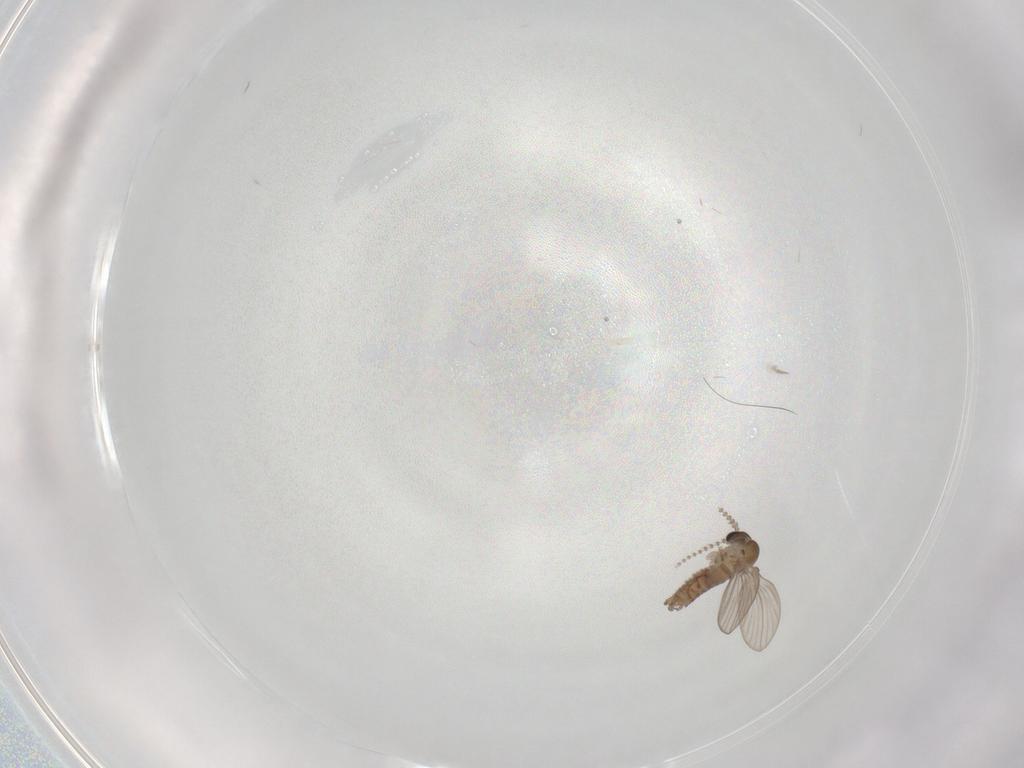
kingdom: Animalia
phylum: Arthropoda
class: Insecta
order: Diptera
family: Psychodidae
